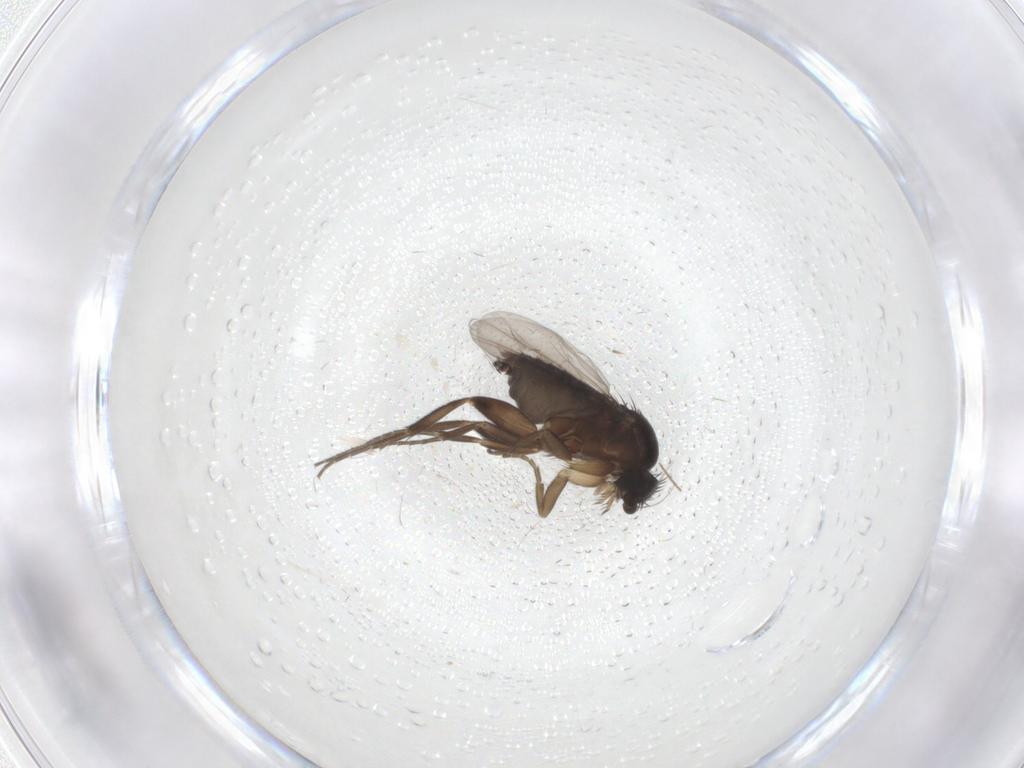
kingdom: Animalia
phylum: Arthropoda
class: Insecta
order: Diptera
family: Phoridae
